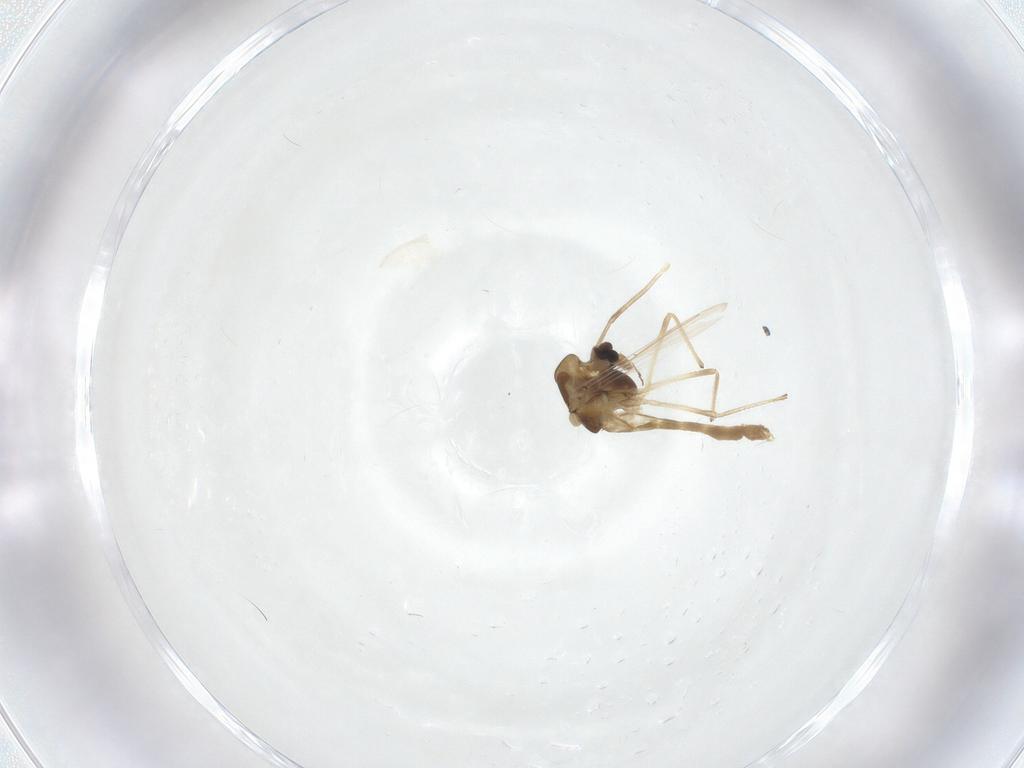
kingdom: Animalia
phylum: Arthropoda
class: Insecta
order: Diptera
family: Chironomidae
